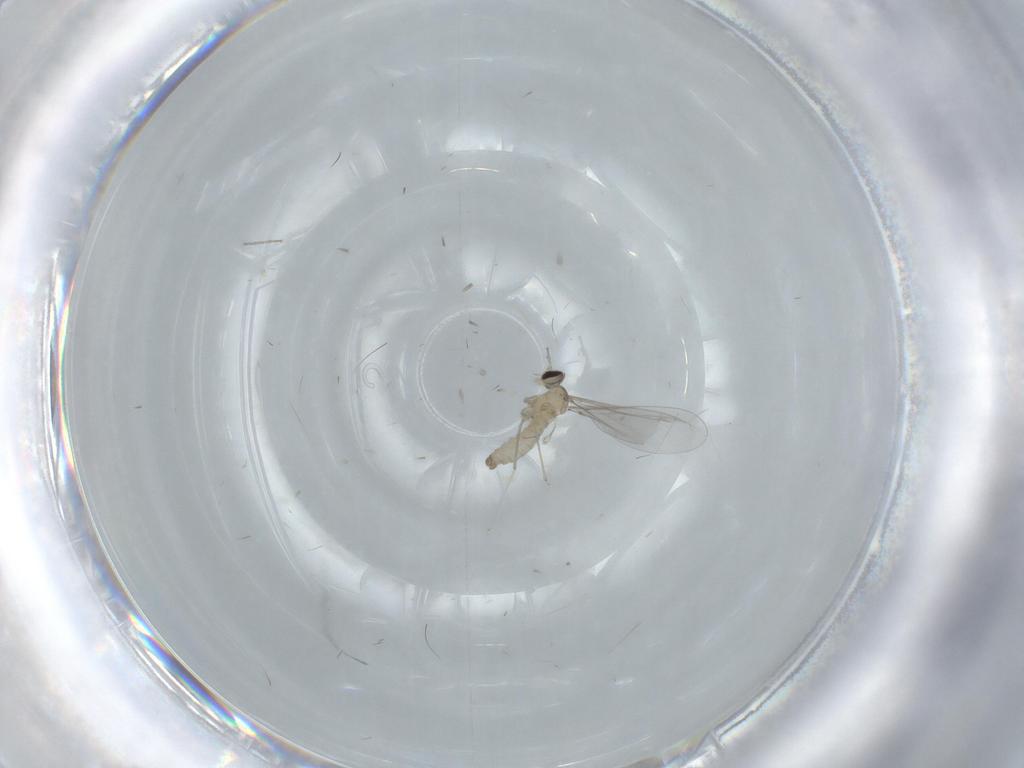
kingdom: Animalia
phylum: Arthropoda
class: Insecta
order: Diptera
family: Cecidomyiidae
